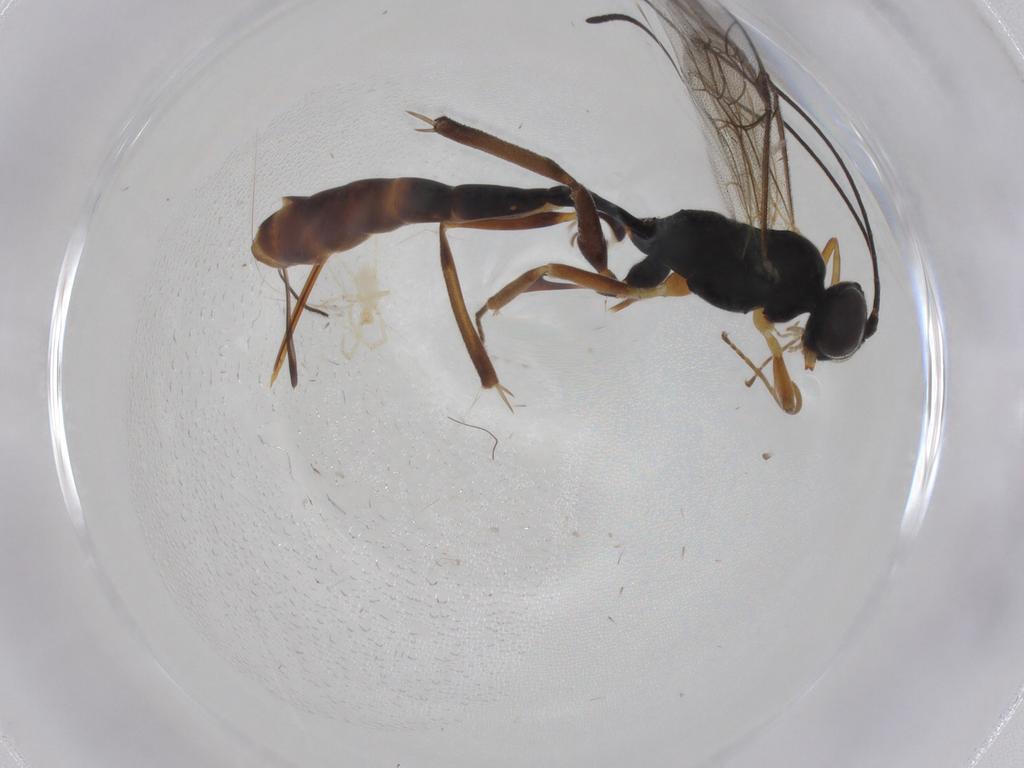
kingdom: Animalia
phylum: Arthropoda
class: Insecta
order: Hymenoptera
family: Ichneumonidae
